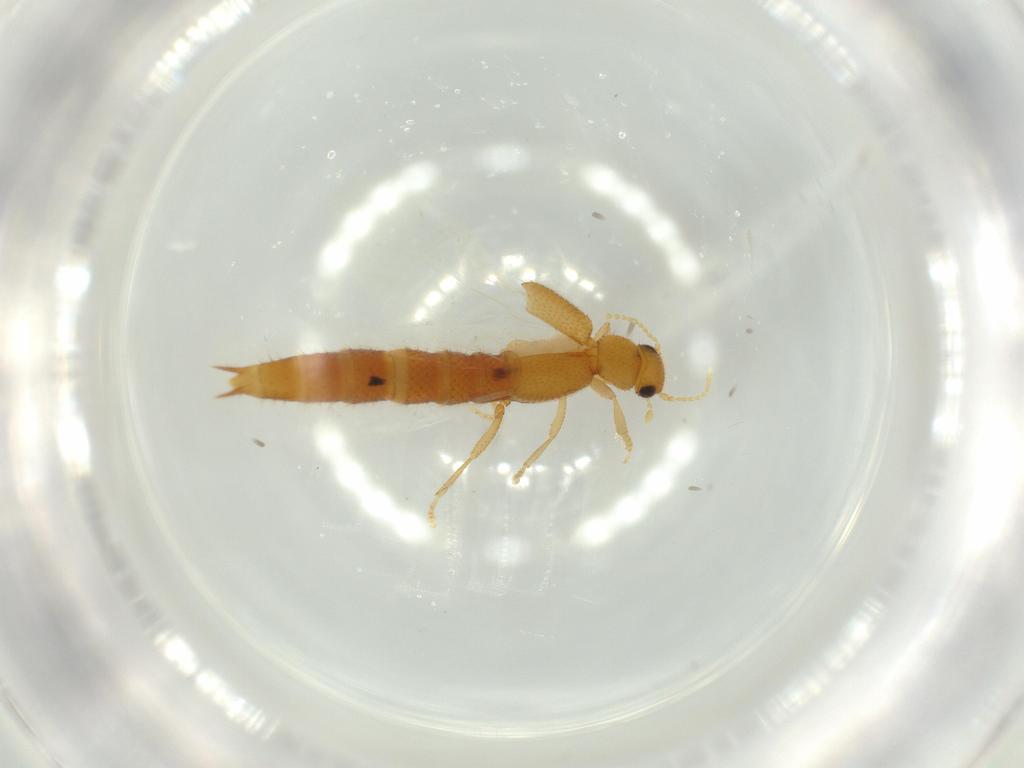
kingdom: Animalia
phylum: Arthropoda
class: Insecta
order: Coleoptera
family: Staphylinidae
